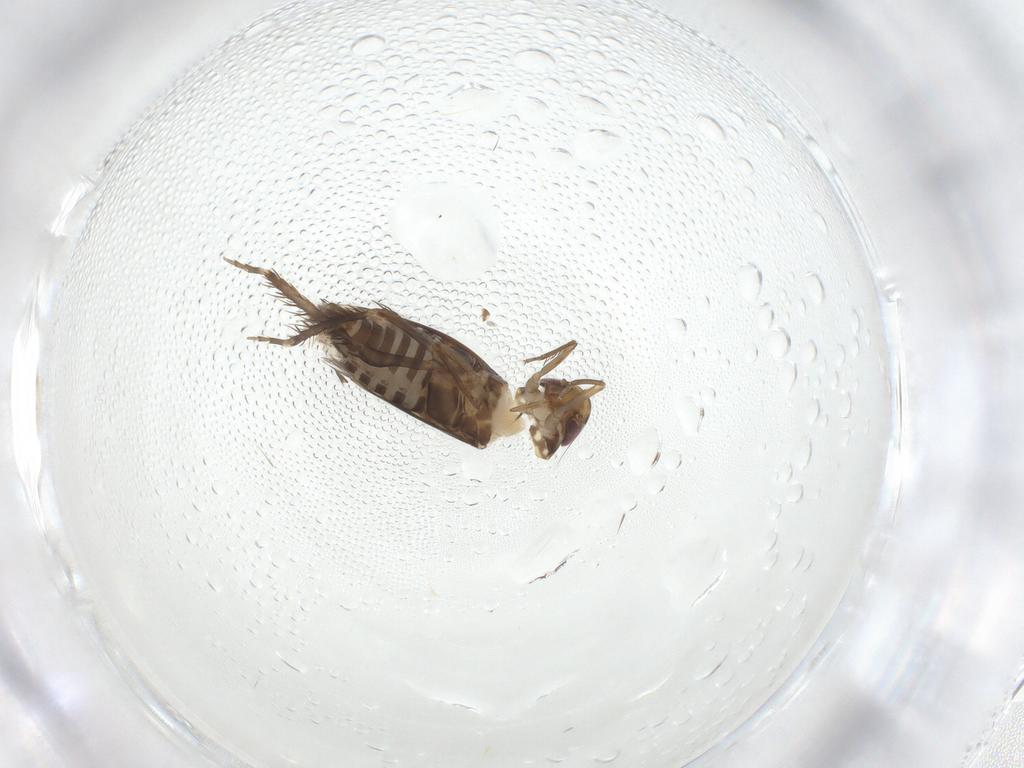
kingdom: Animalia
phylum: Arthropoda
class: Insecta
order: Hemiptera
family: Cicadellidae
